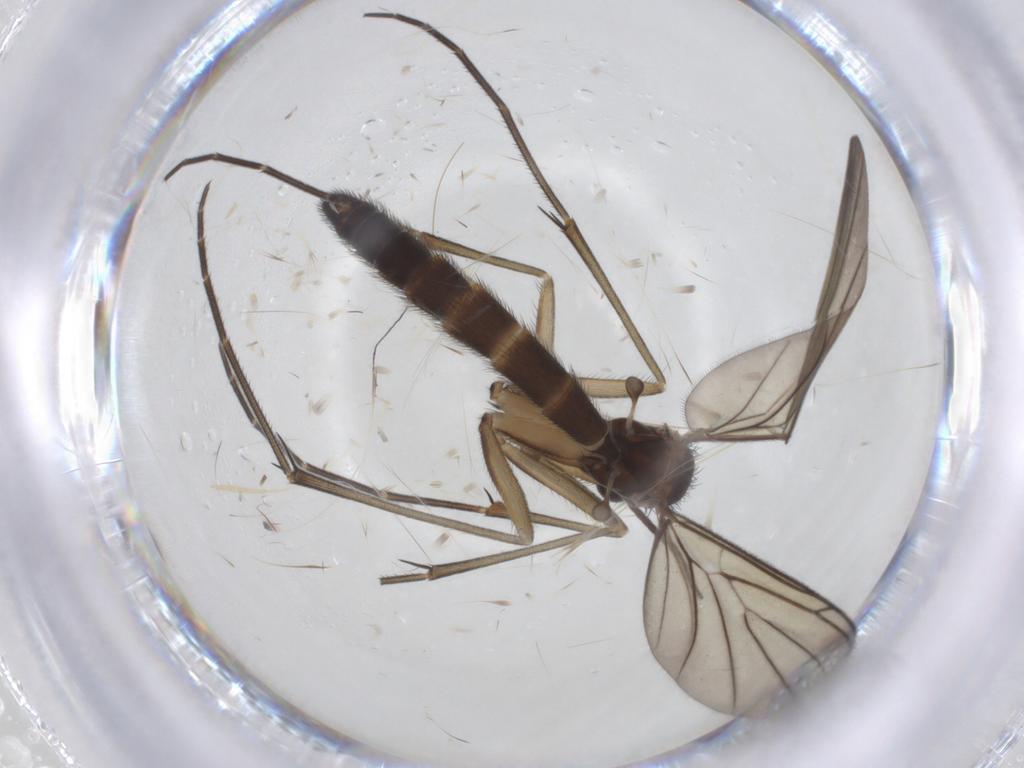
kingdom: Animalia
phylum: Arthropoda
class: Insecta
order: Diptera
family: Keroplatidae
